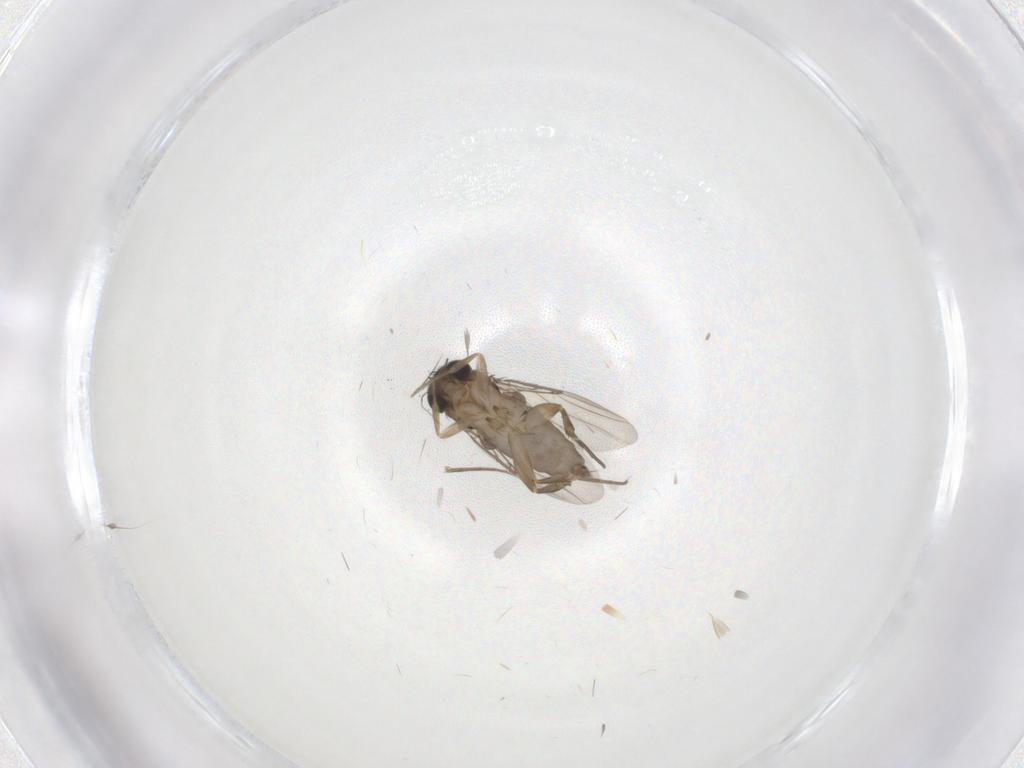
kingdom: Animalia
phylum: Arthropoda
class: Insecta
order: Diptera
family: Phoridae
